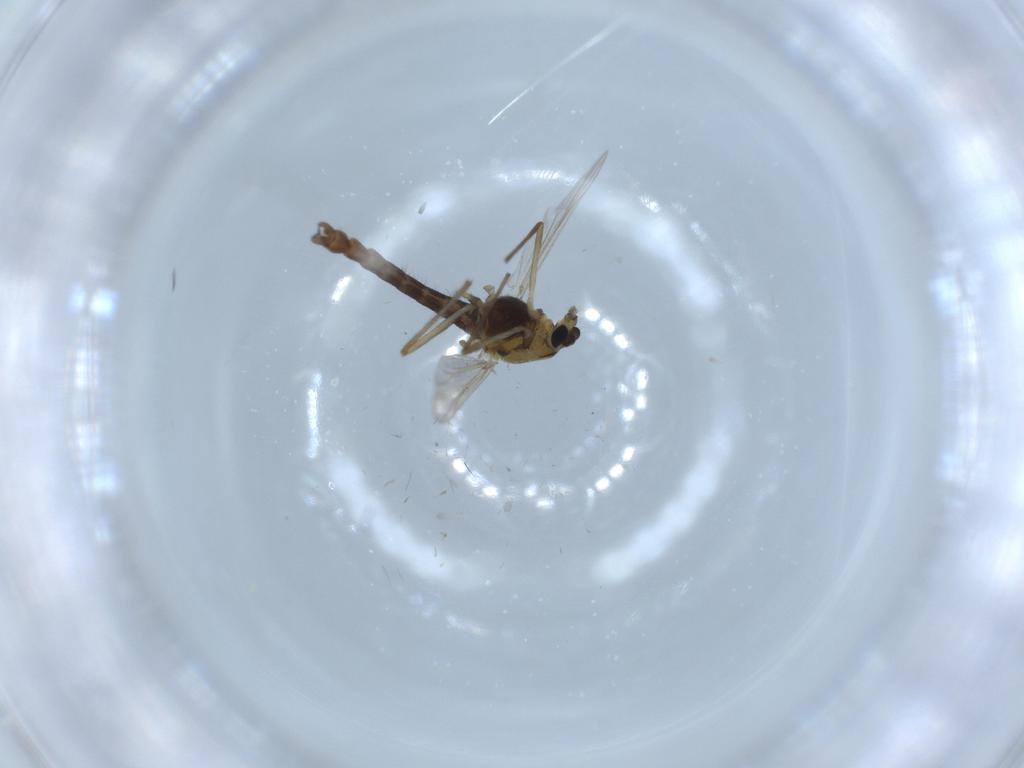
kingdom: Animalia
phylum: Arthropoda
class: Insecta
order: Diptera
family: Chironomidae
